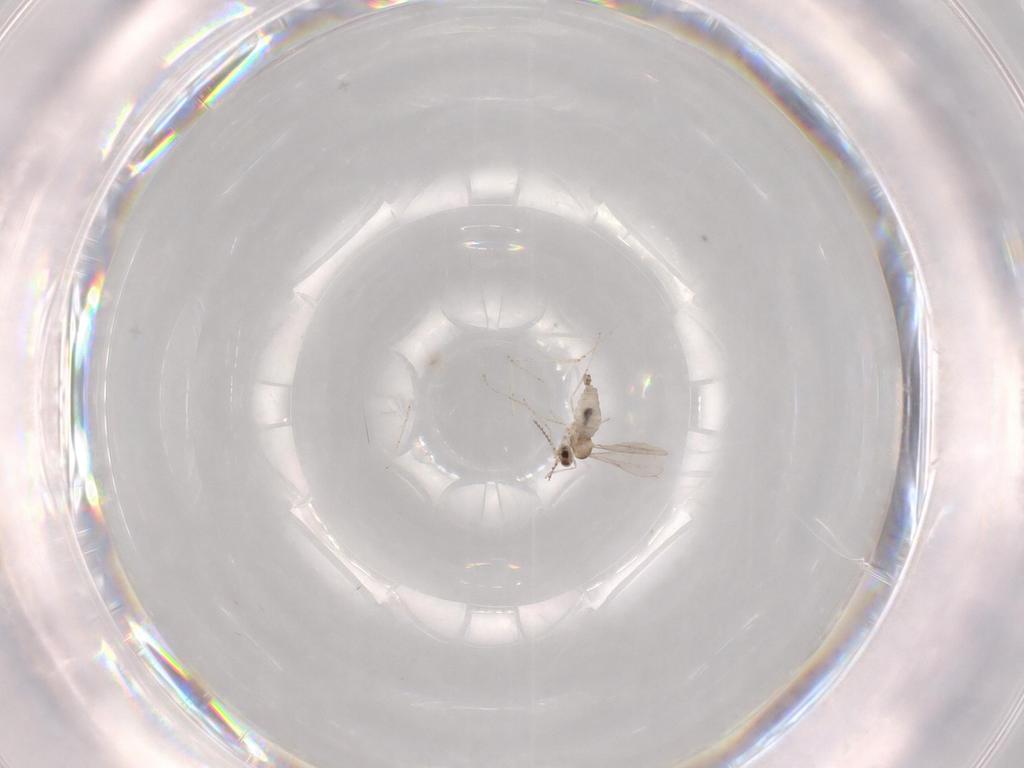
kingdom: Animalia
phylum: Arthropoda
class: Insecta
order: Diptera
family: Cecidomyiidae
